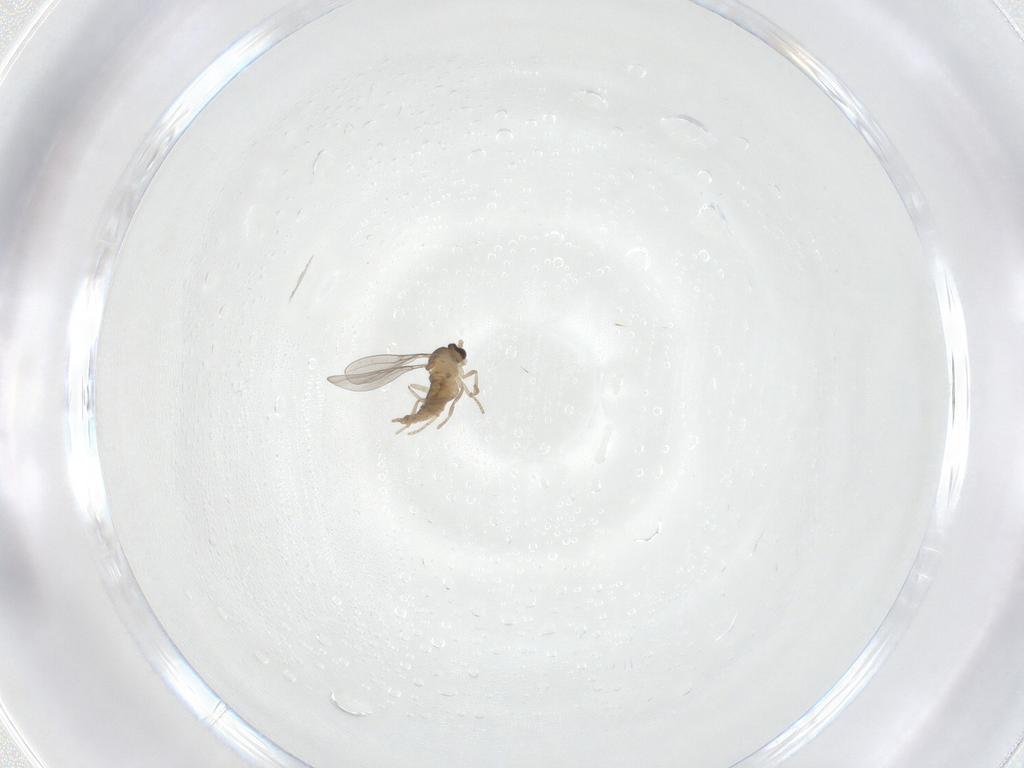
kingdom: Animalia
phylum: Arthropoda
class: Insecta
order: Diptera
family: Cecidomyiidae
